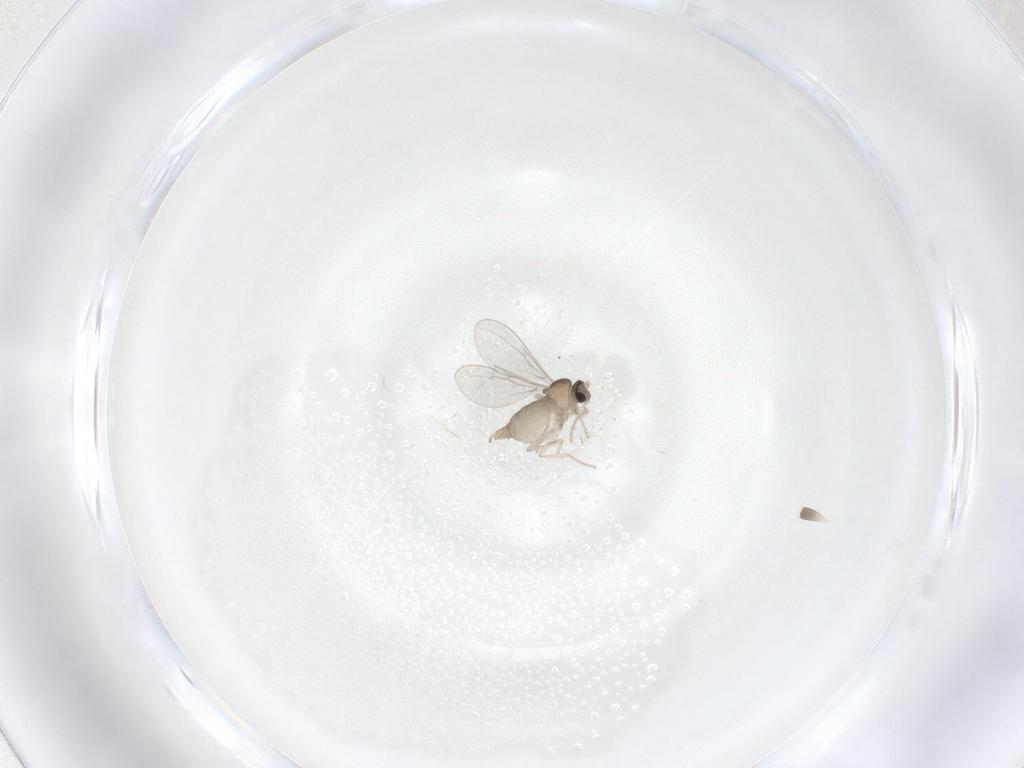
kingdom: Animalia
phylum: Arthropoda
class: Insecta
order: Diptera
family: Cecidomyiidae
